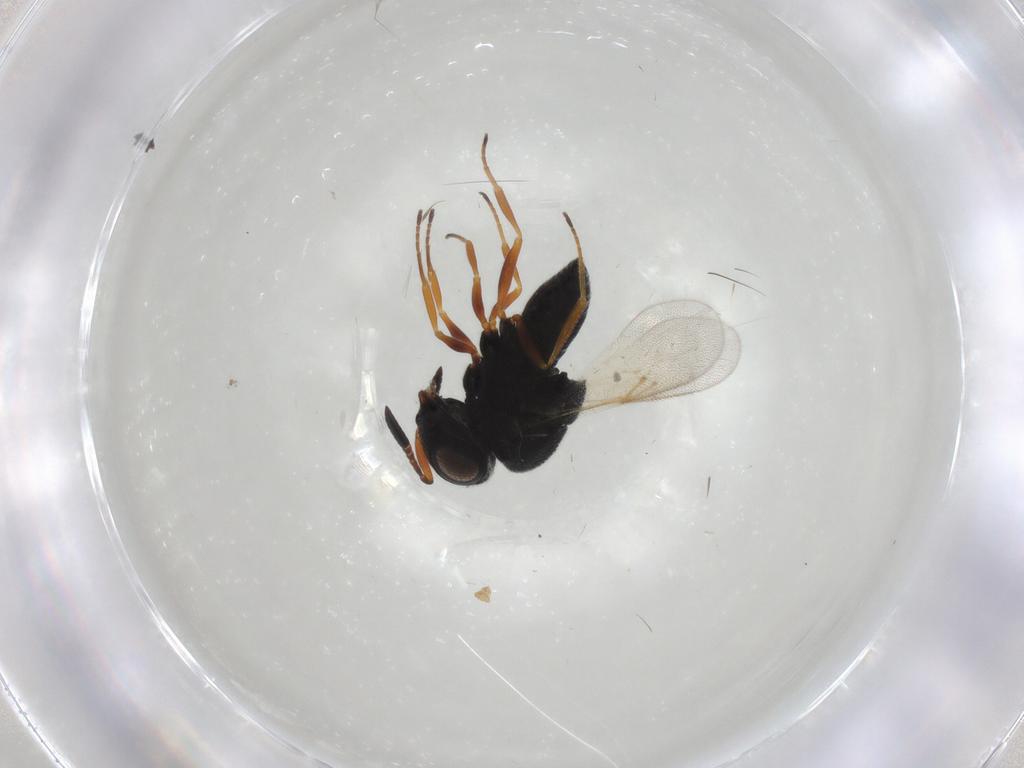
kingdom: Animalia
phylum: Arthropoda
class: Insecta
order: Hymenoptera
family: Scelionidae
